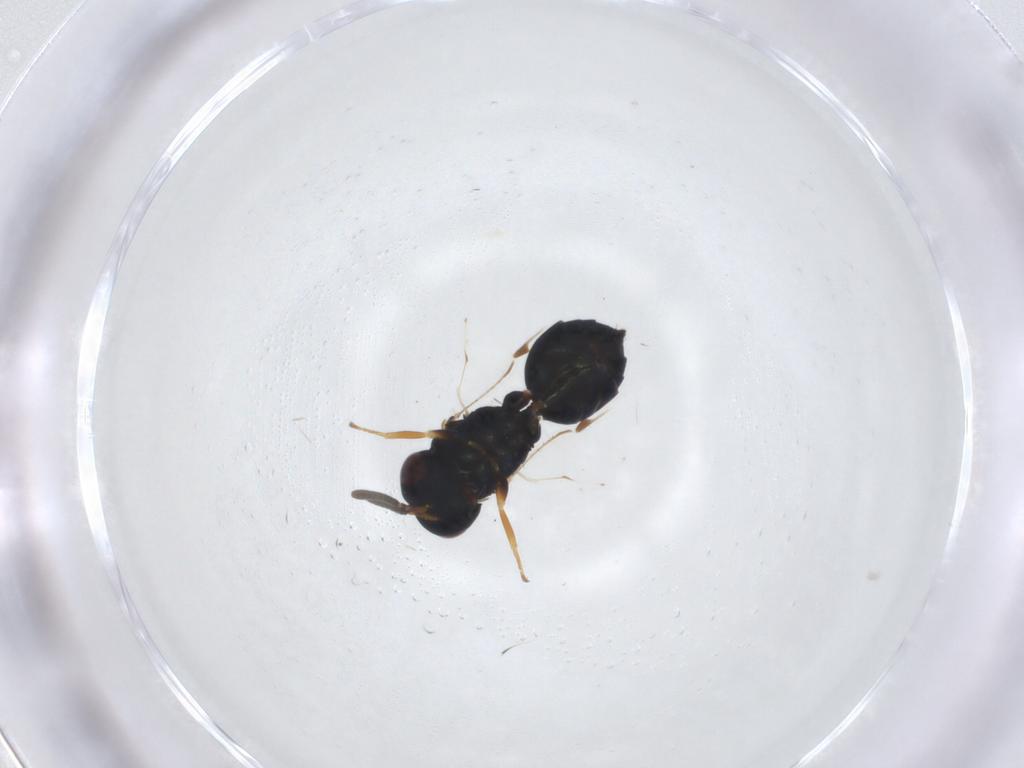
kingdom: Animalia
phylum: Arthropoda
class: Insecta
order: Hymenoptera
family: Pteromalidae
